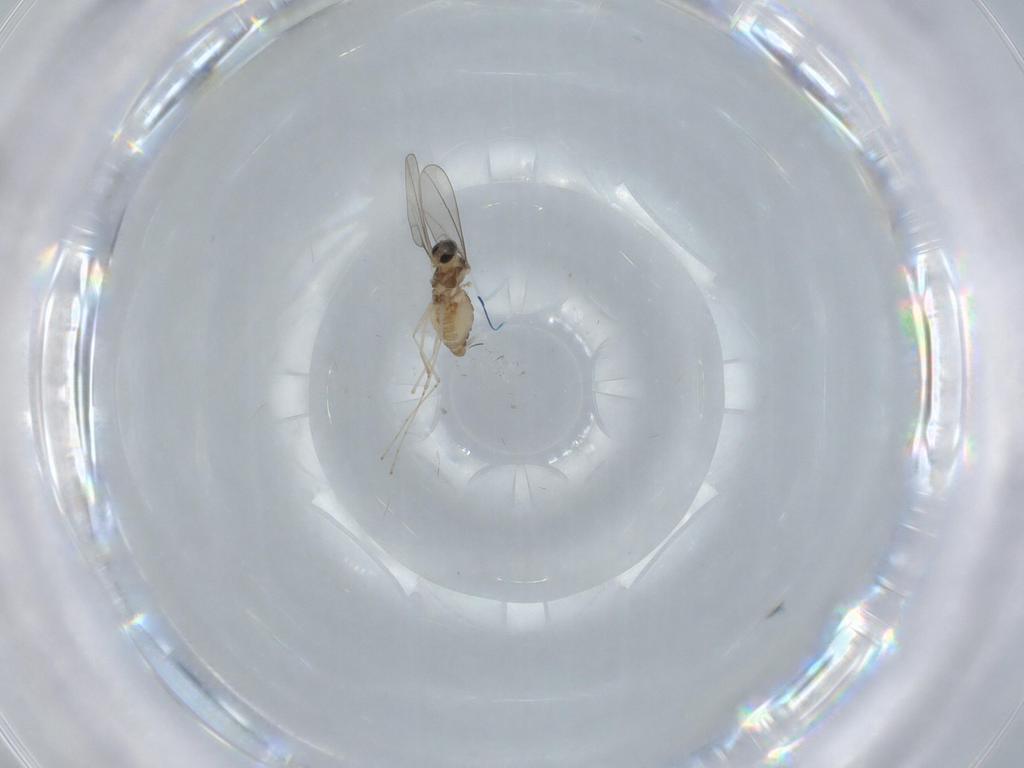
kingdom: Animalia
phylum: Arthropoda
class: Insecta
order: Diptera
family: Cecidomyiidae
